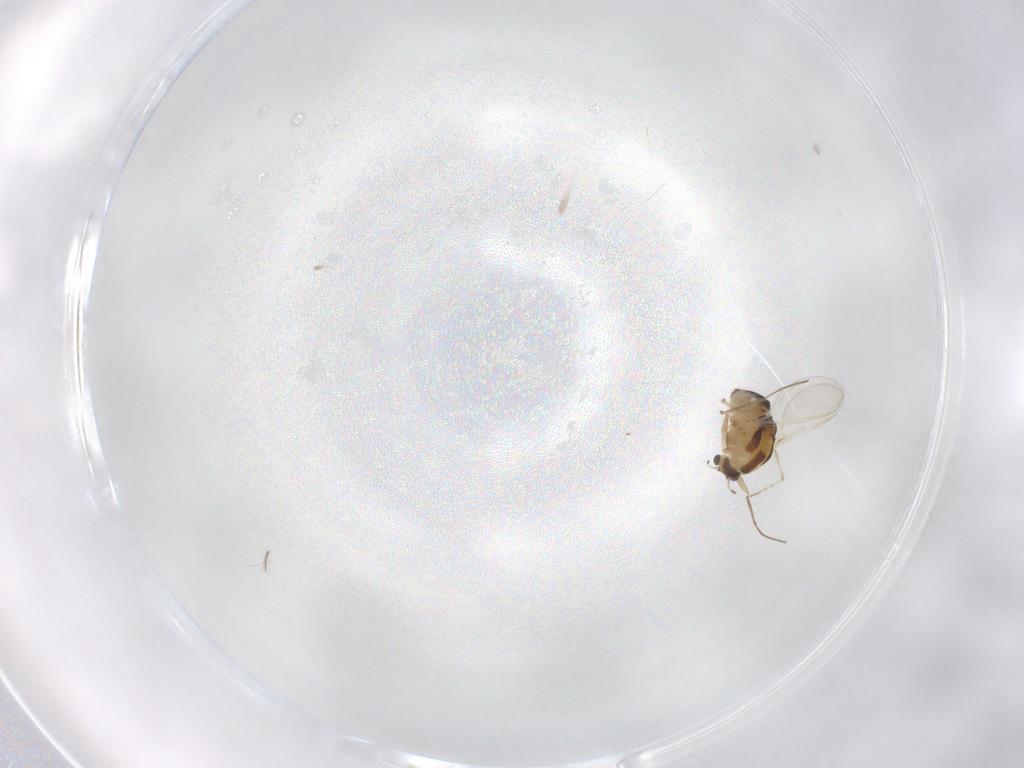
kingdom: Animalia
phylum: Arthropoda
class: Insecta
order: Diptera
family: Chironomidae
